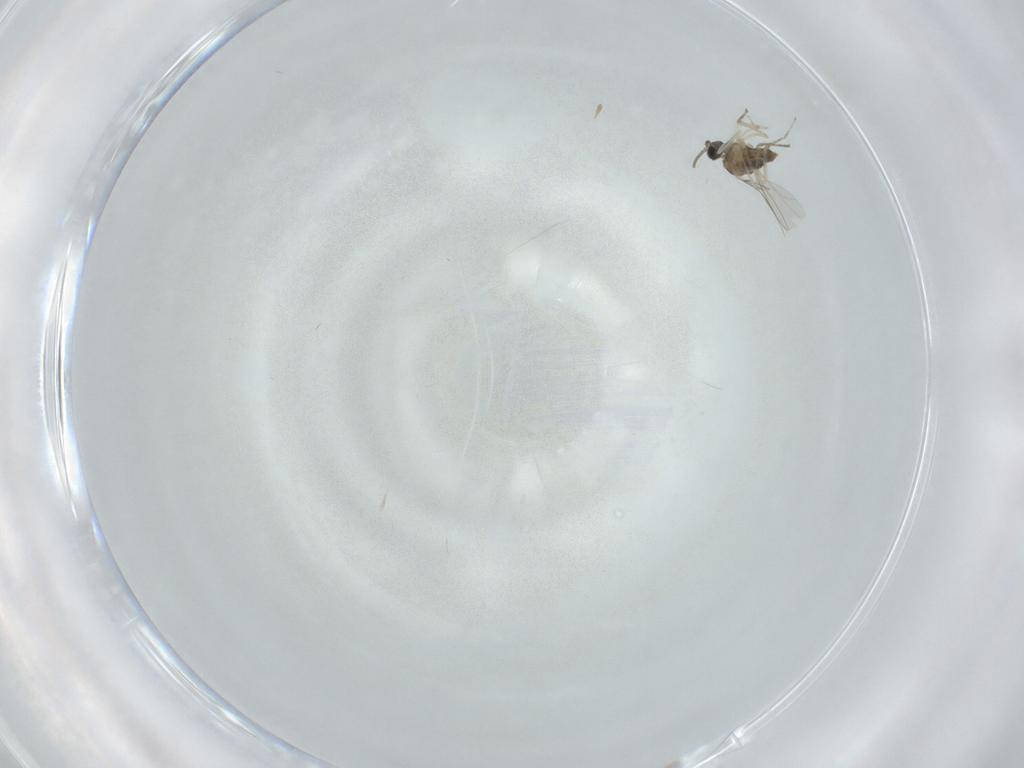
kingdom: Animalia
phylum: Arthropoda
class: Insecta
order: Diptera
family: Cecidomyiidae
